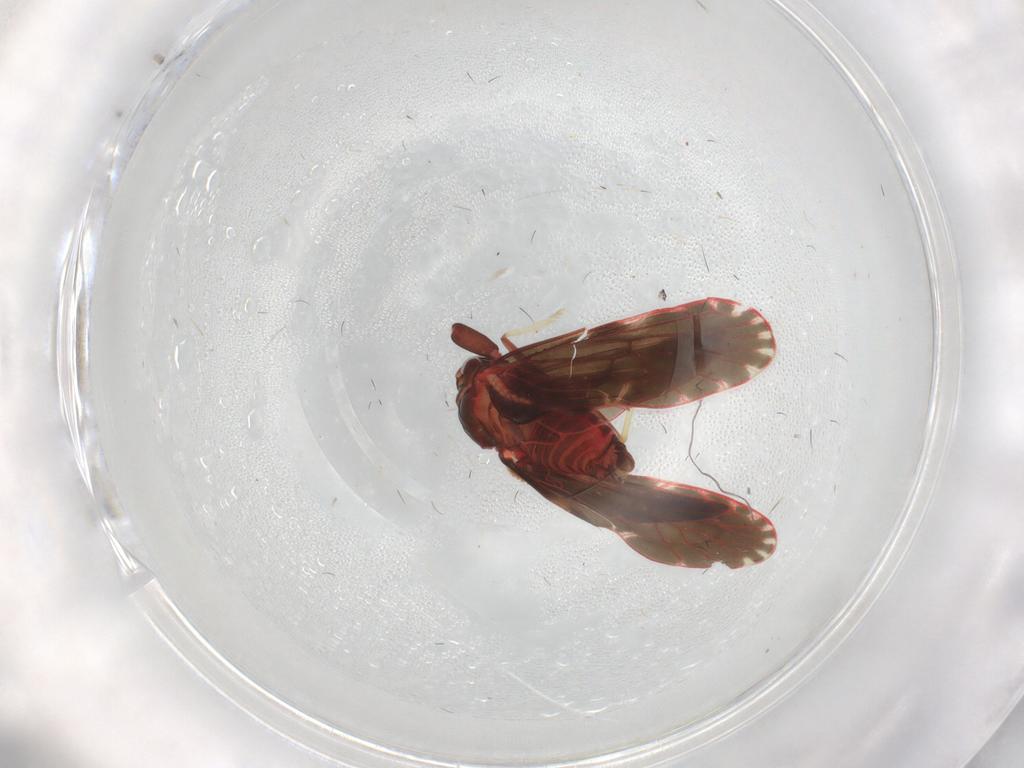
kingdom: Animalia
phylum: Arthropoda
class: Insecta
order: Hemiptera
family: Derbidae
